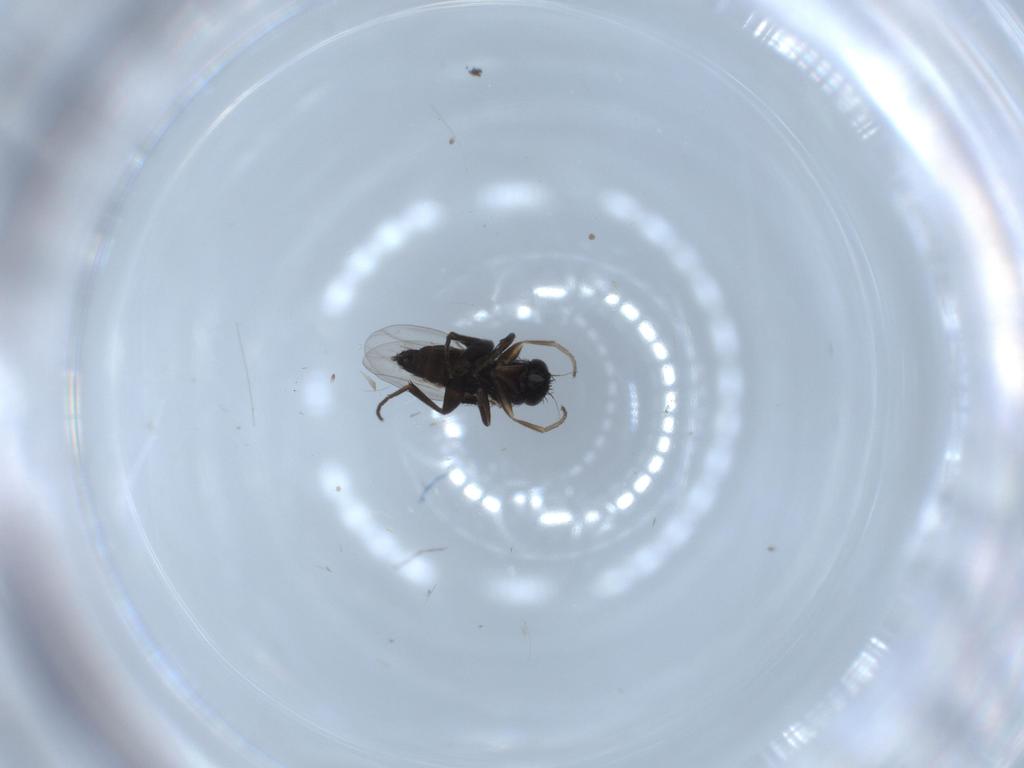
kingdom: Animalia
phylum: Arthropoda
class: Insecta
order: Diptera
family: Phoridae
